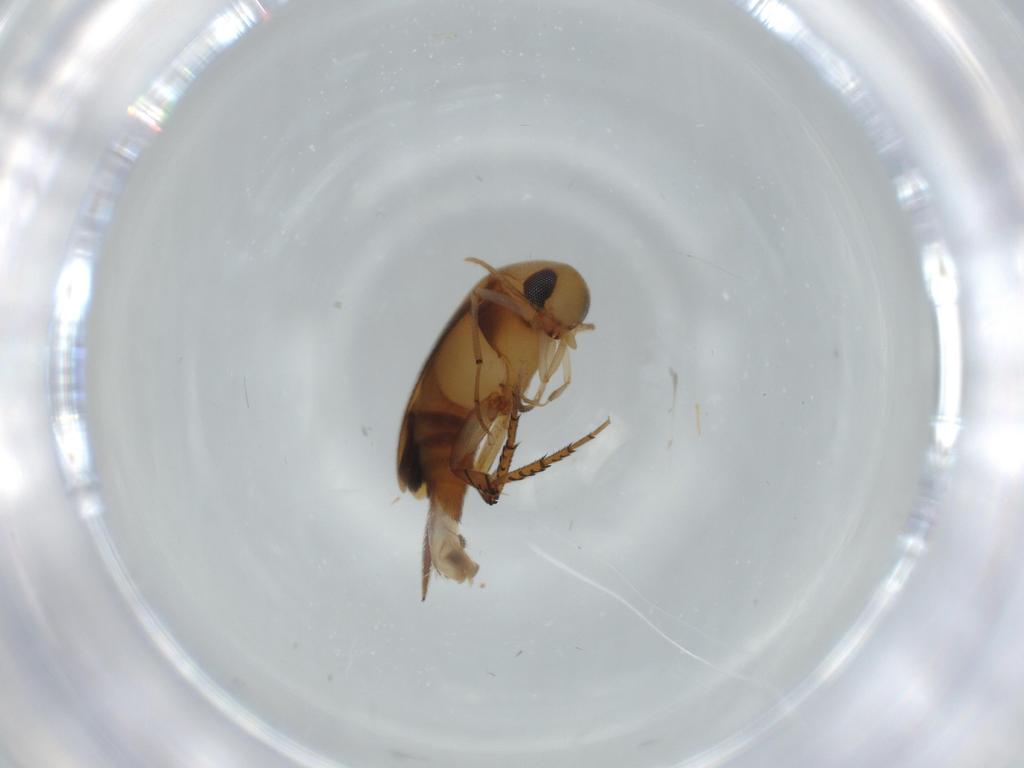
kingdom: Animalia
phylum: Arthropoda
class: Insecta
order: Coleoptera
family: Mordellidae
